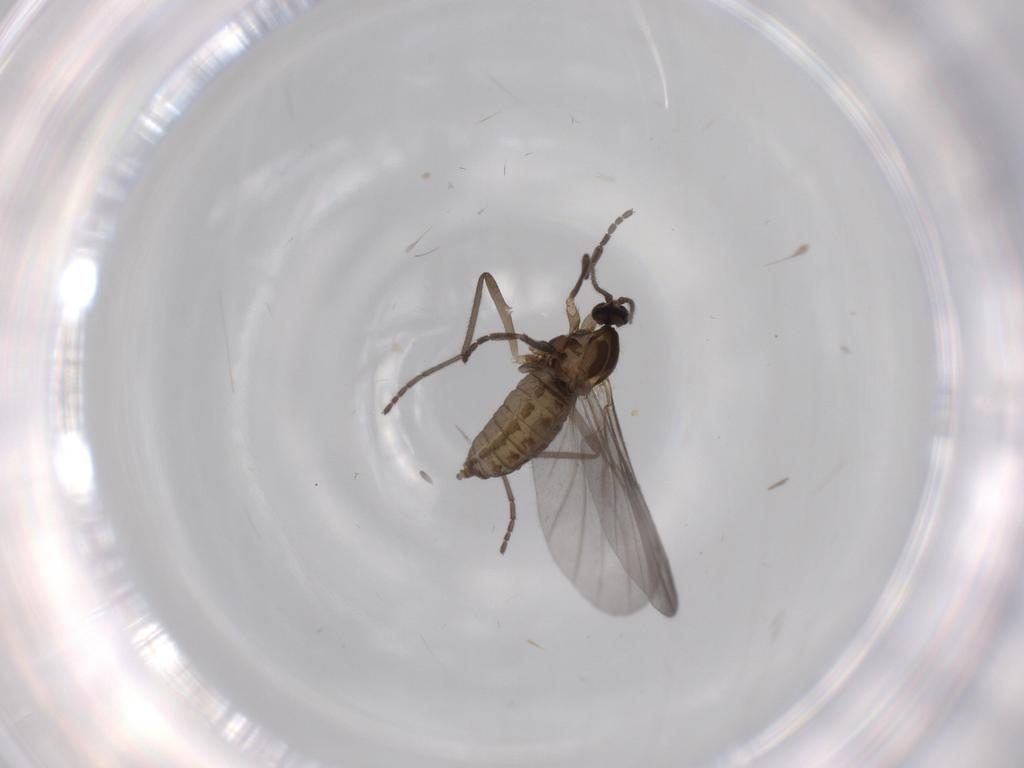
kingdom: Animalia
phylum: Arthropoda
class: Insecta
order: Diptera
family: Cecidomyiidae
